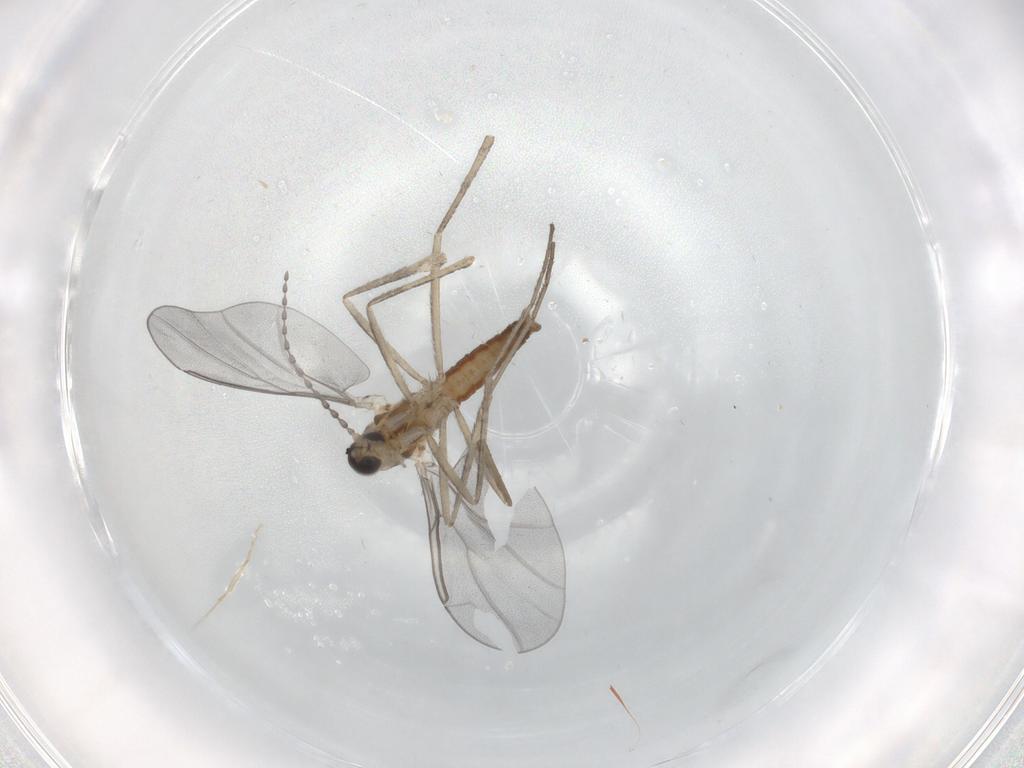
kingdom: Animalia
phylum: Arthropoda
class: Insecta
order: Diptera
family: Cecidomyiidae
